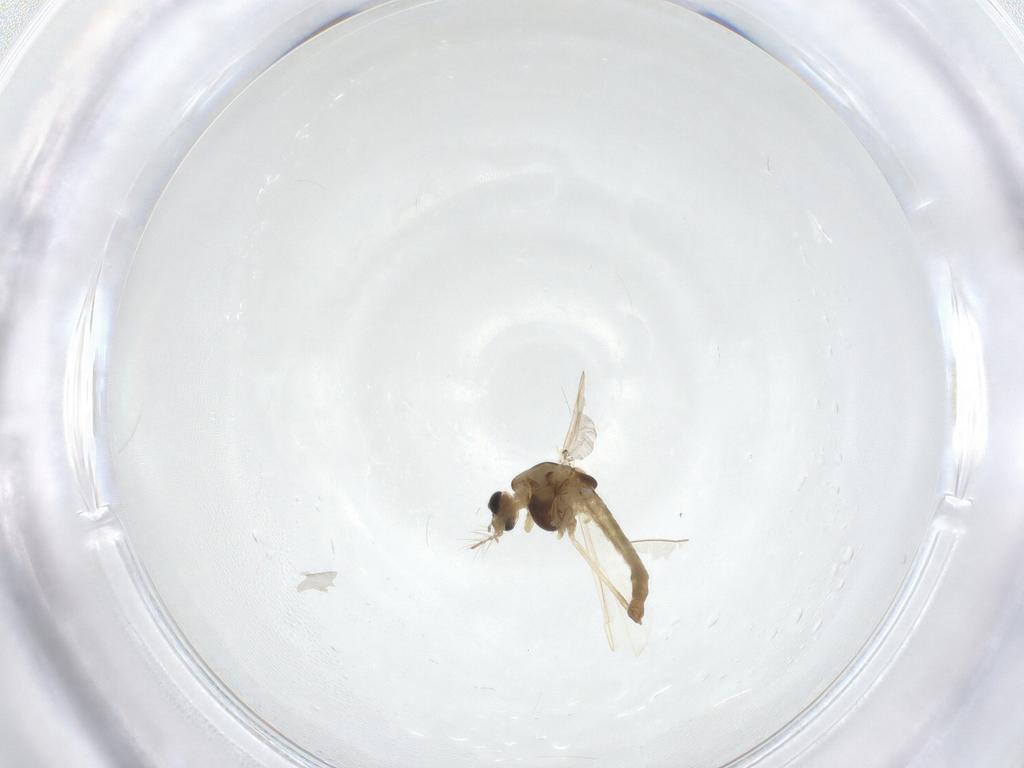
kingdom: Animalia
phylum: Arthropoda
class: Insecta
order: Diptera
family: Chironomidae
